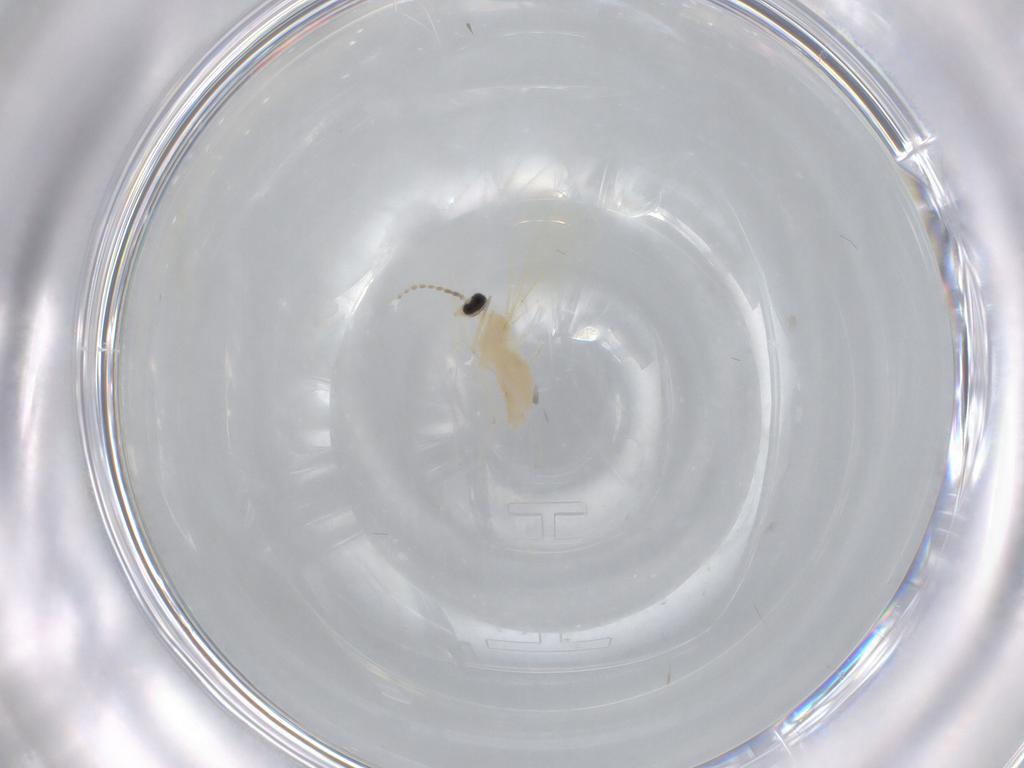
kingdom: Animalia
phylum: Arthropoda
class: Insecta
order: Diptera
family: Cecidomyiidae
